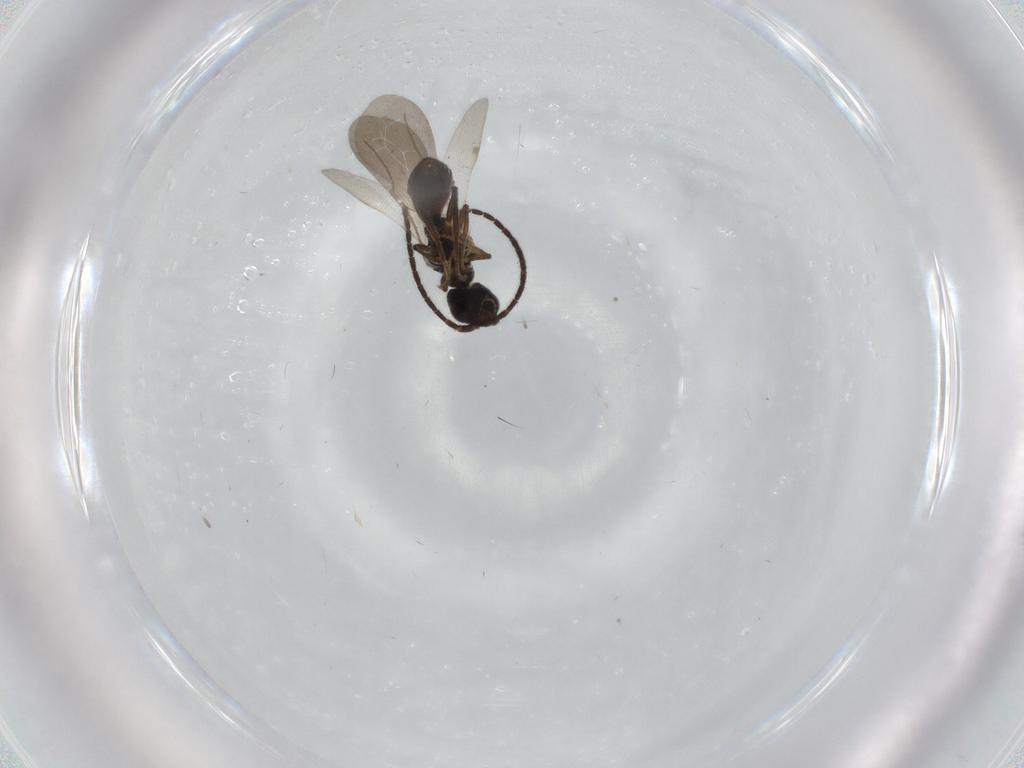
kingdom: Animalia
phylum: Arthropoda
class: Insecta
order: Hymenoptera
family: Bethylidae
